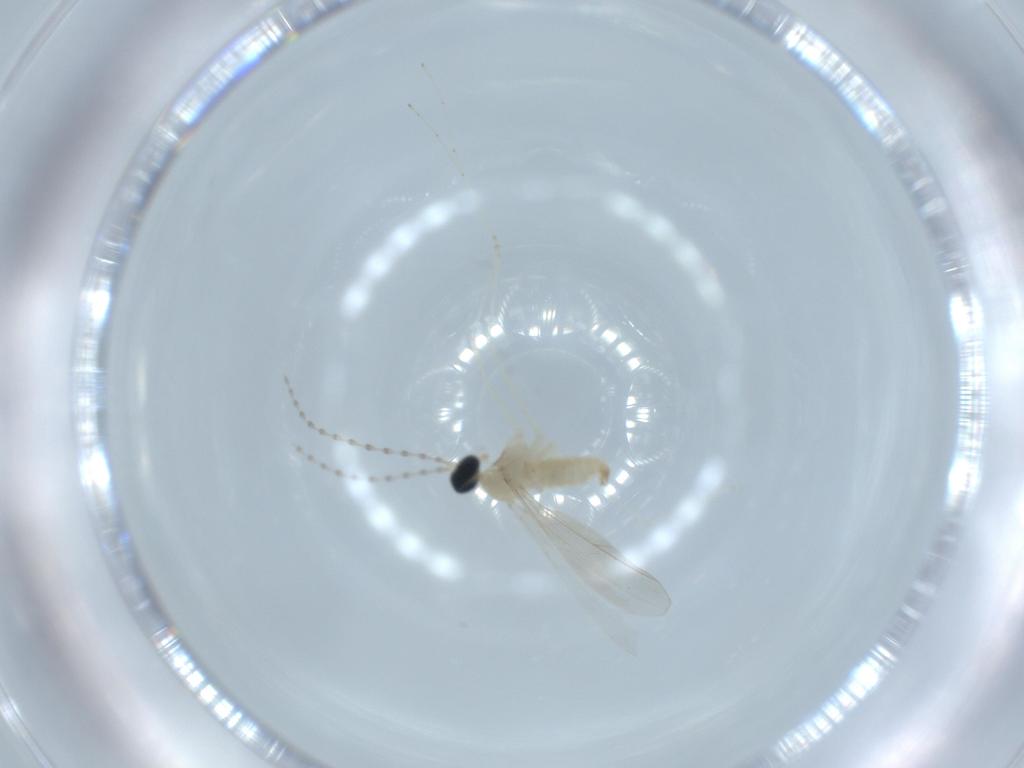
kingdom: Animalia
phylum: Arthropoda
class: Insecta
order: Diptera
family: Cecidomyiidae
